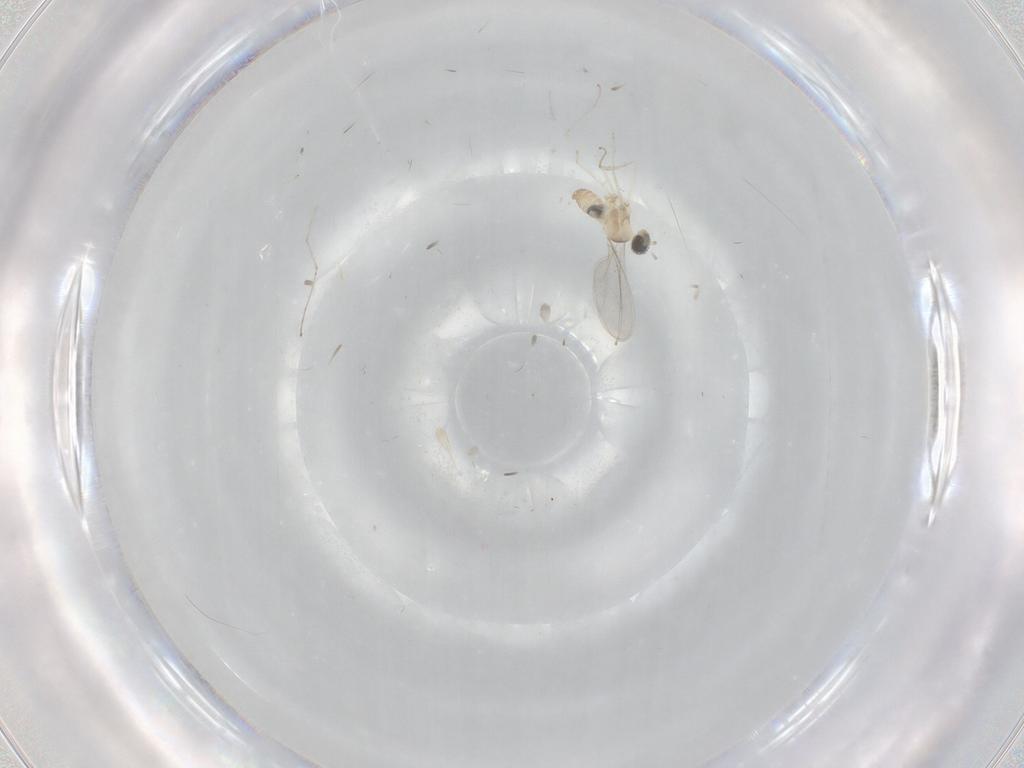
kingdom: Animalia
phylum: Arthropoda
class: Insecta
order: Diptera
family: Cecidomyiidae
